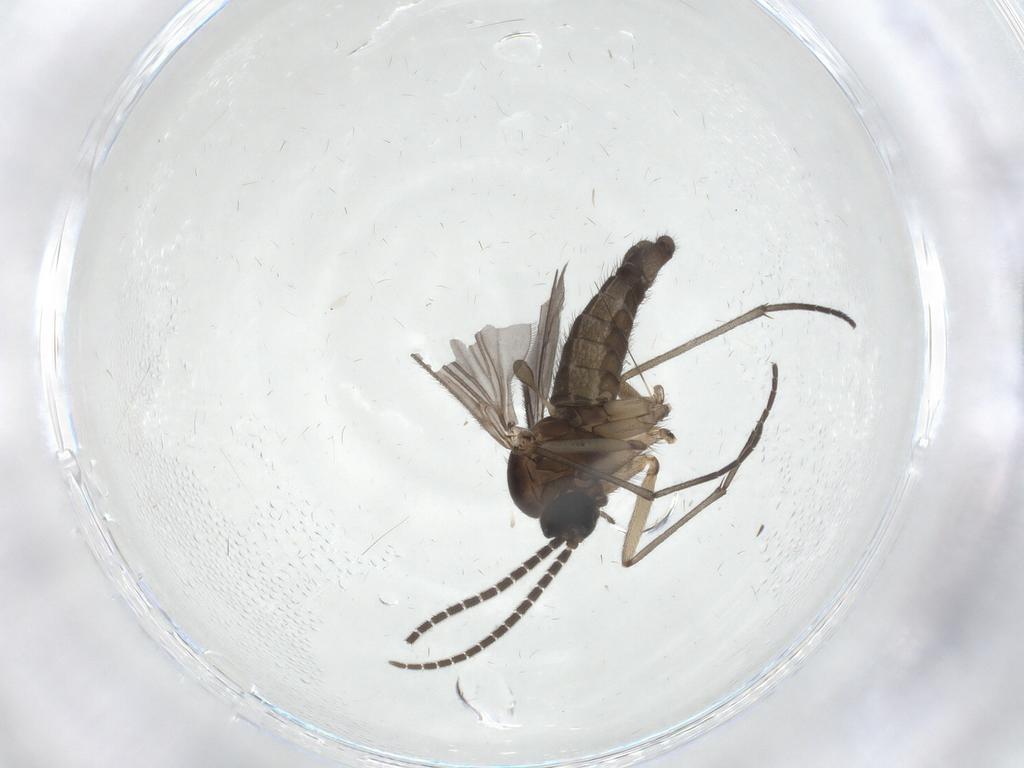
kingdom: Animalia
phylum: Arthropoda
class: Insecta
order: Diptera
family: Sciaridae
